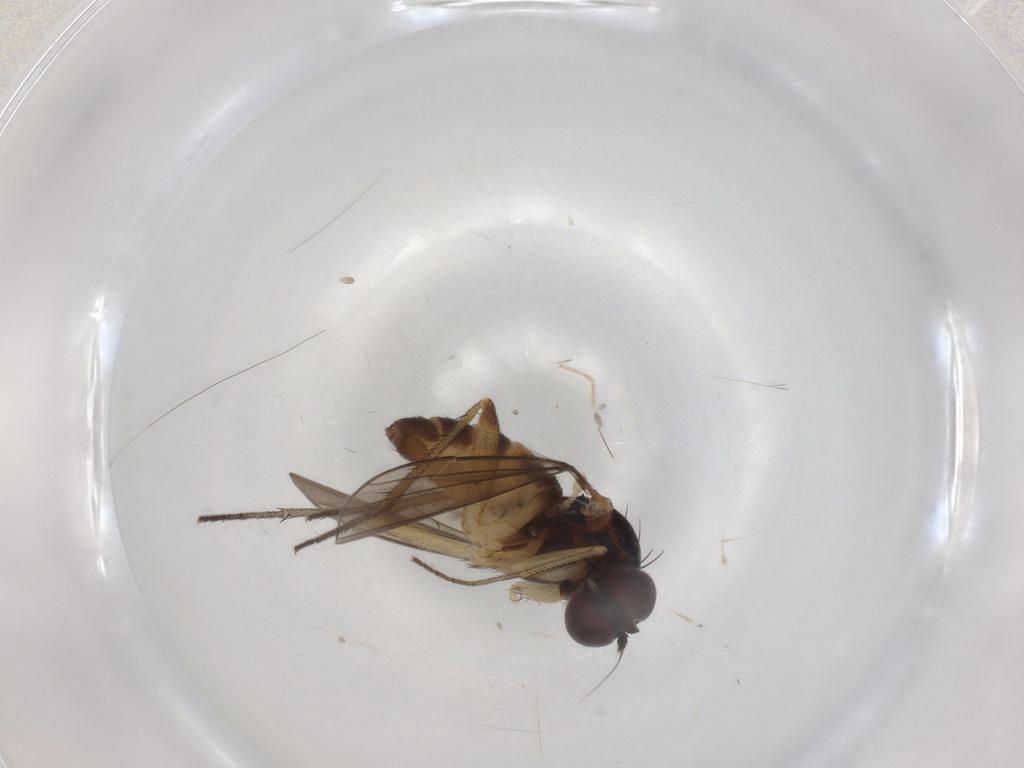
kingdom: Animalia
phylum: Arthropoda
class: Insecta
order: Diptera
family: Dolichopodidae
